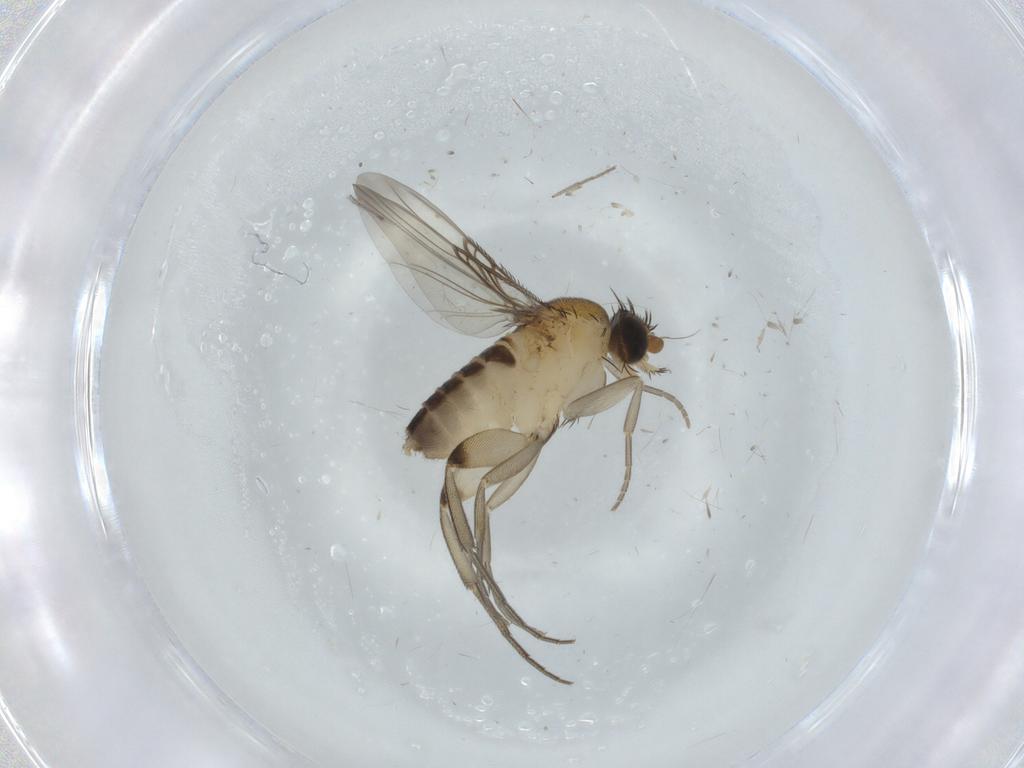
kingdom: Animalia
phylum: Arthropoda
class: Insecta
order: Diptera
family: Phoridae
